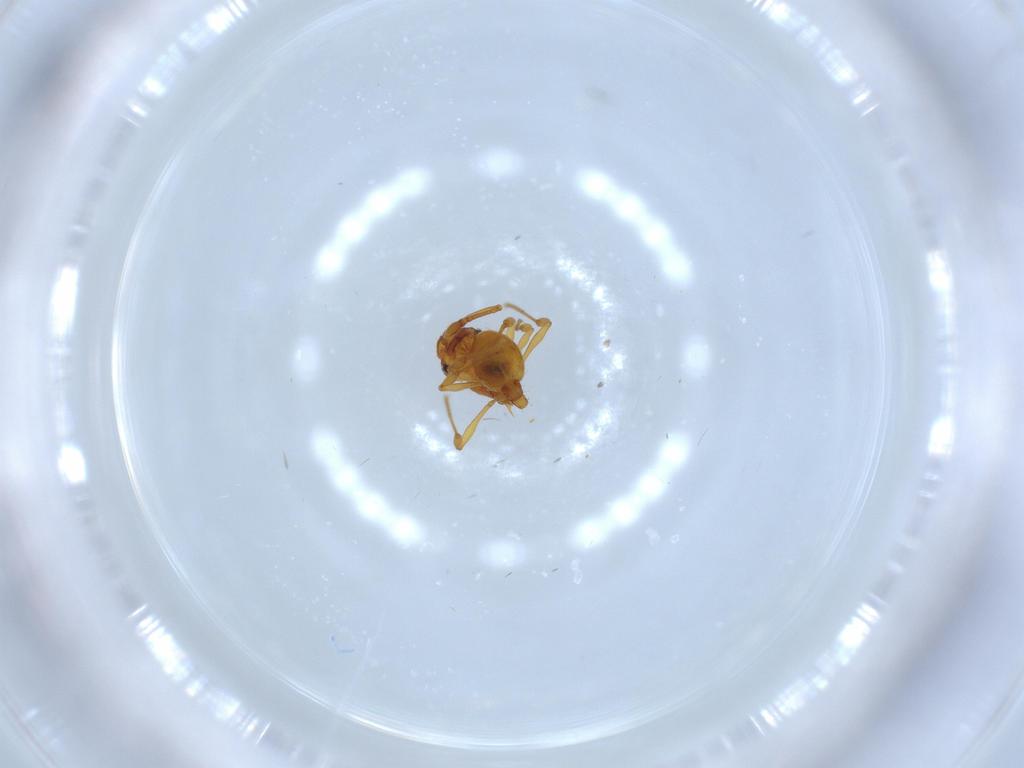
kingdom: Animalia
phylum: Arthropoda
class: Insecta
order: Hymenoptera
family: Formicidae
